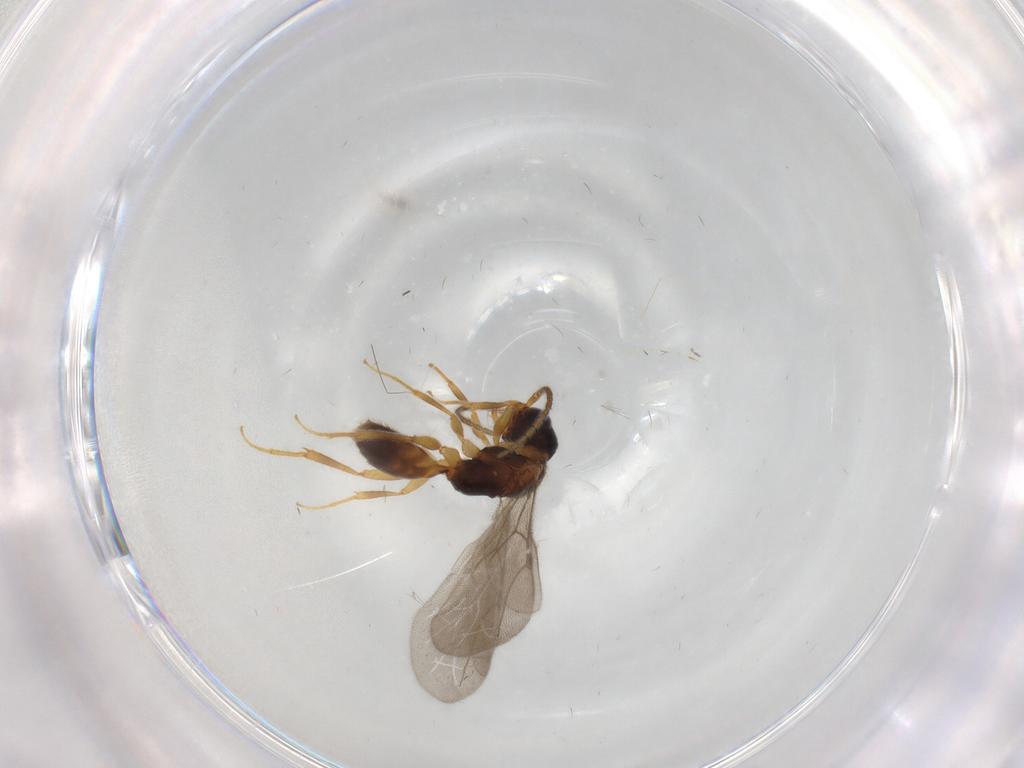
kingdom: Animalia
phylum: Arthropoda
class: Insecta
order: Hymenoptera
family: Bethylidae
